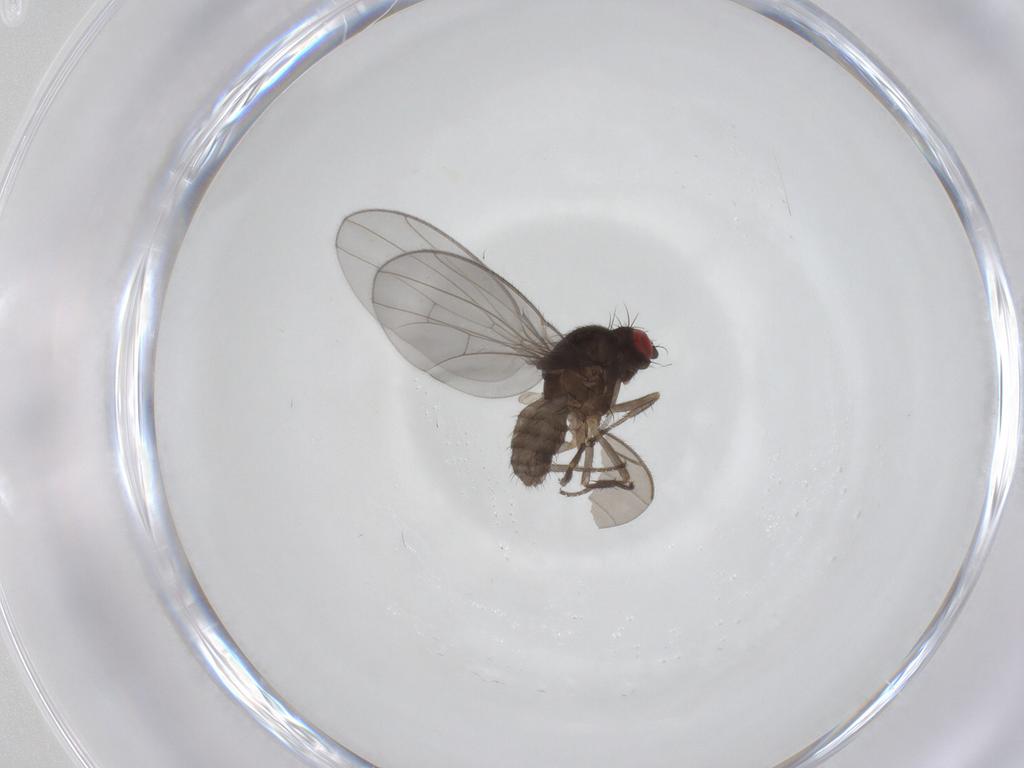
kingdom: Animalia
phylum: Arthropoda
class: Insecta
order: Diptera
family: Drosophilidae
